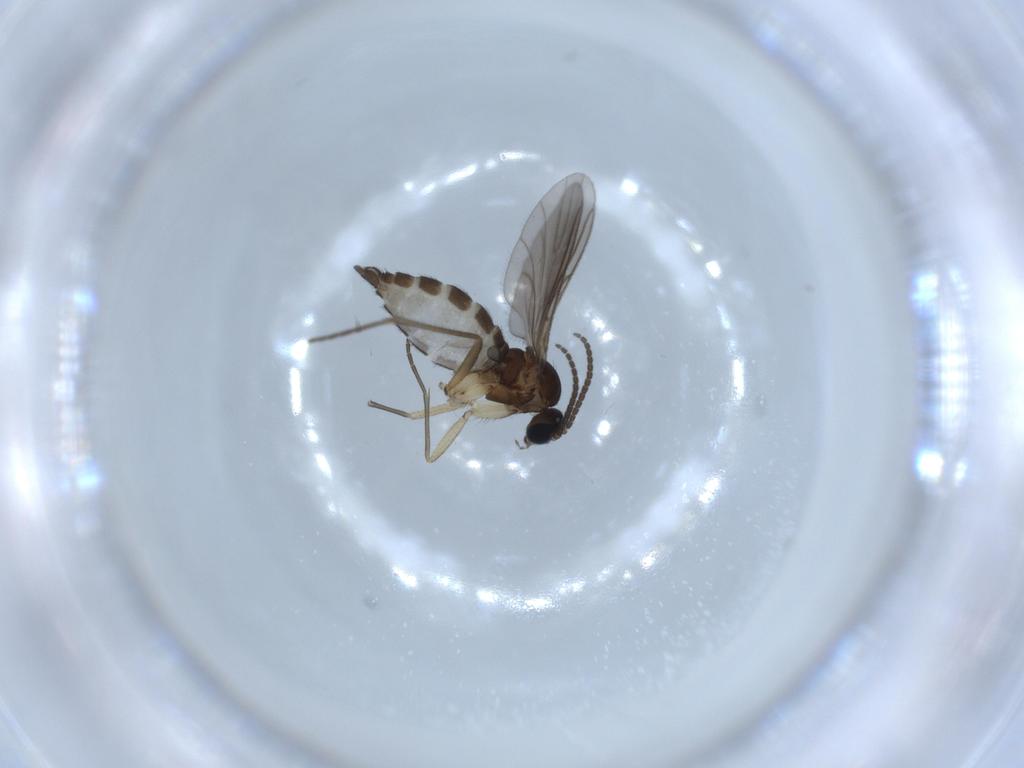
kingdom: Animalia
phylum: Arthropoda
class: Insecta
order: Diptera
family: Sciaridae
